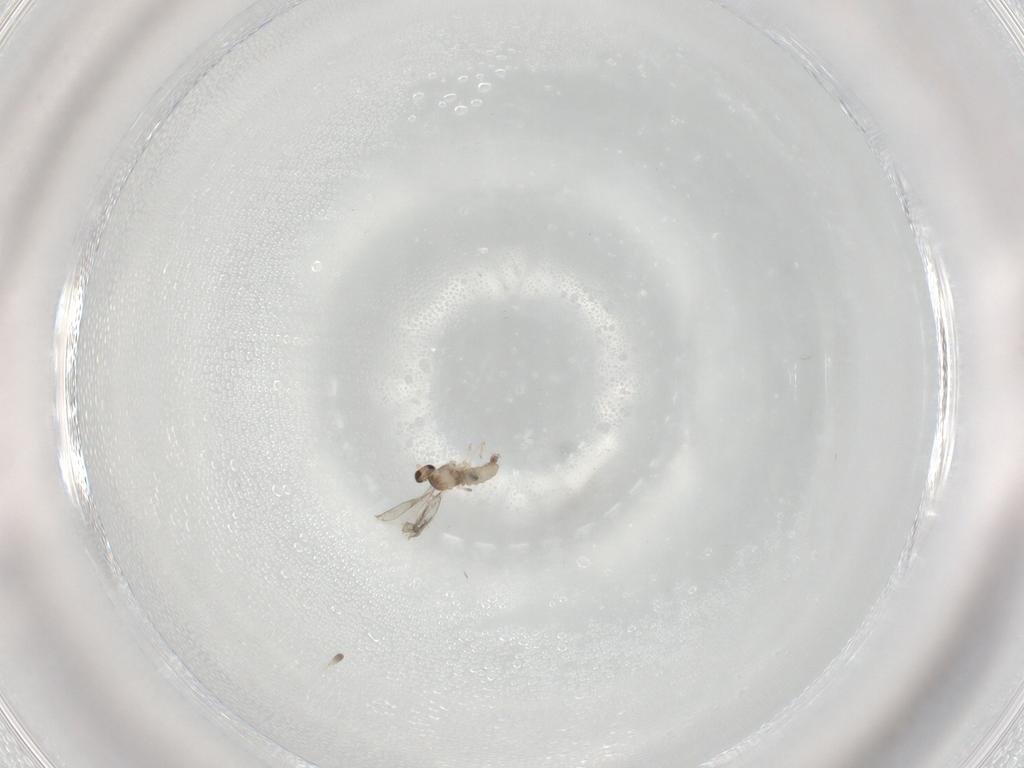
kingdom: Animalia
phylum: Arthropoda
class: Insecta
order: Diptera
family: Cecidomyiidae
